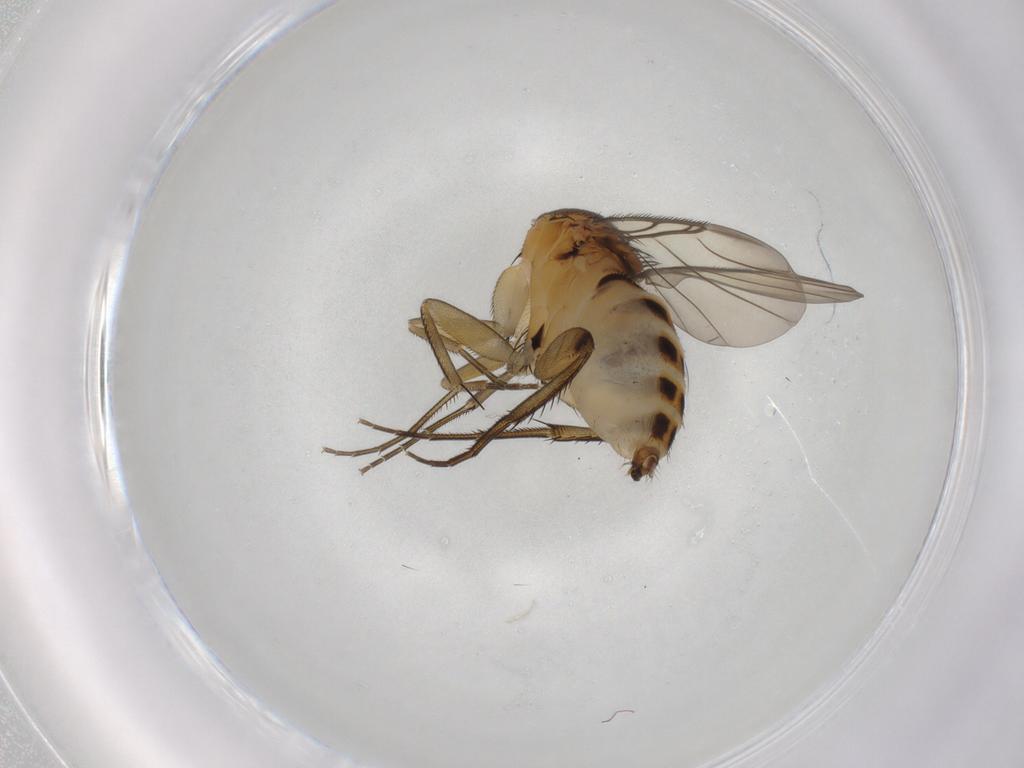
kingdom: Animalia
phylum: Arthropoda
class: Insecta
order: Diptera
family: Phoridae
